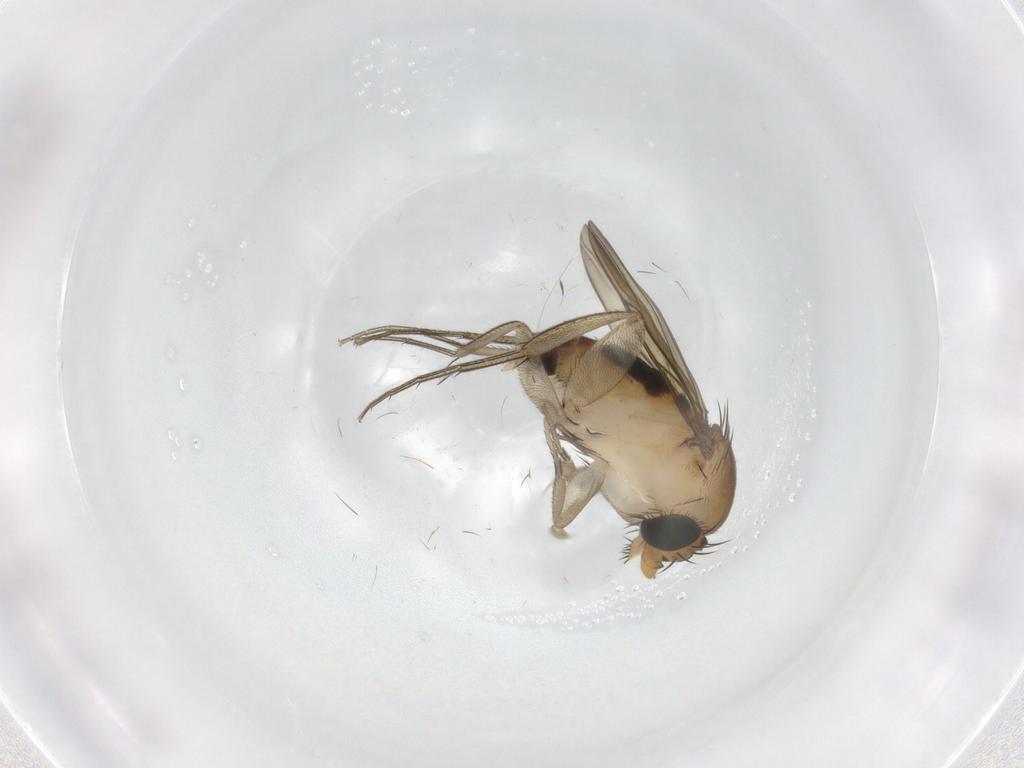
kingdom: Animalia
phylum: Arthropoda
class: Insecta
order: Diptera
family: Phoridae
